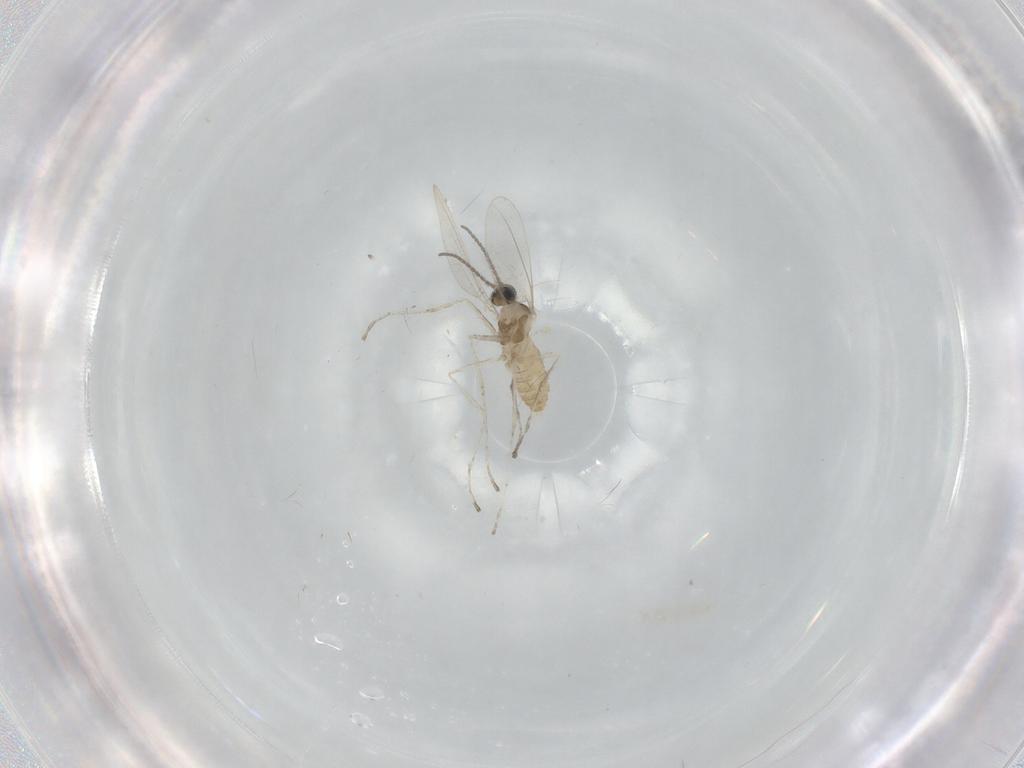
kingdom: Animalia
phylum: Arthropoda
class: Insecta
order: Diptera
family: Cecidomyiidae
